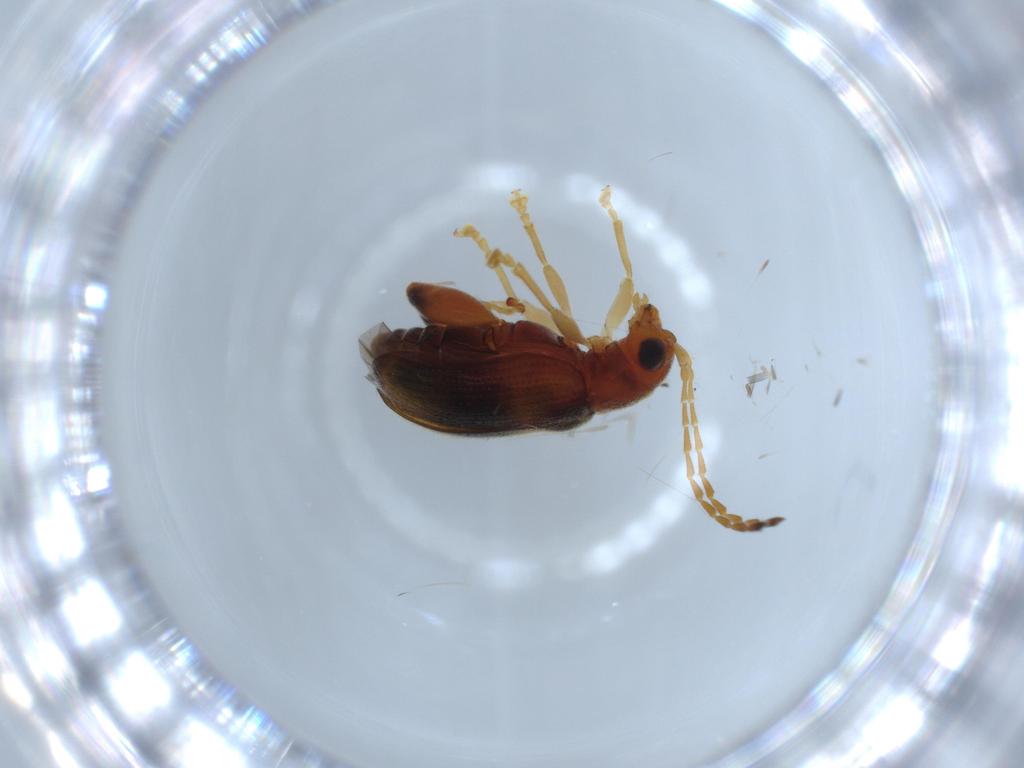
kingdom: Animalia
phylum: Arthropoda
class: Insecta
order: Coleoptera
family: Chrysomelidae
